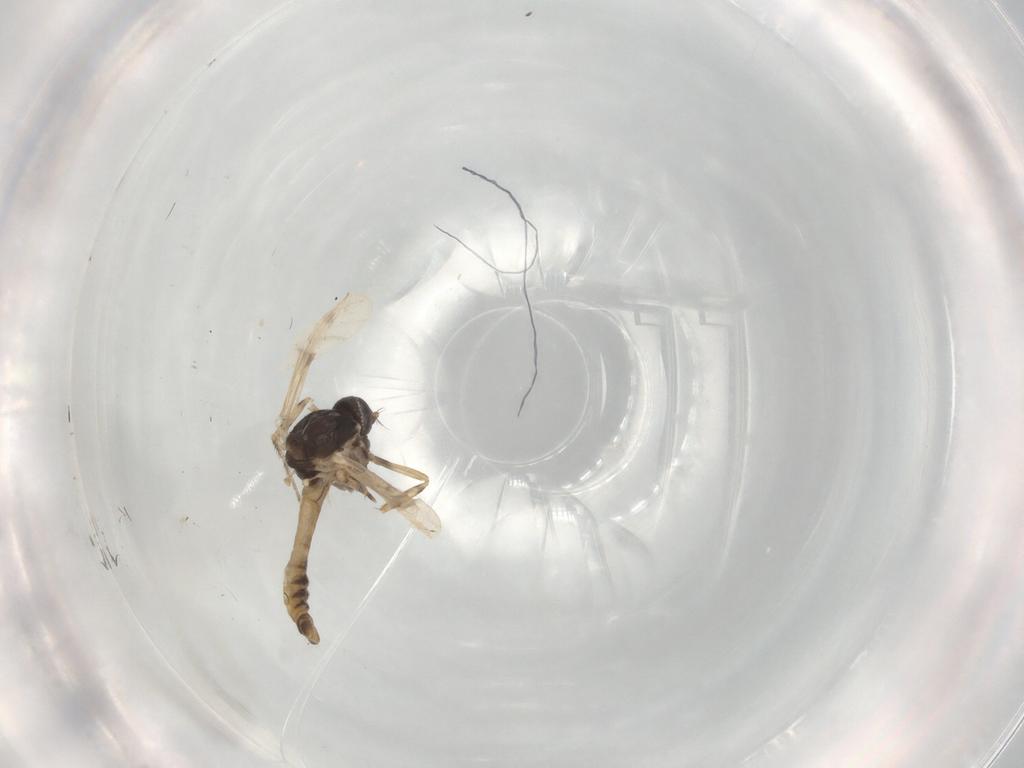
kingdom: Animalia
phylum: Arthropoda
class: Insecta
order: Diptera
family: Ceratopogonidae
